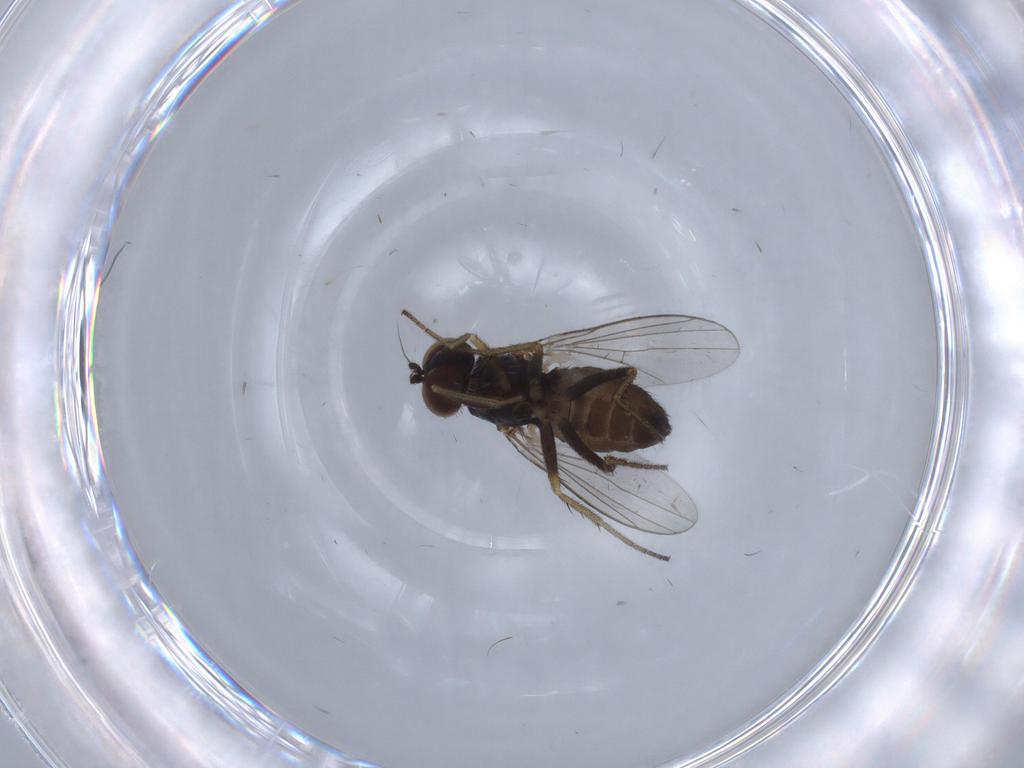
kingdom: Animalia
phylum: Arthropoda
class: Insecta
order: Diptera
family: Dolichopodidae
